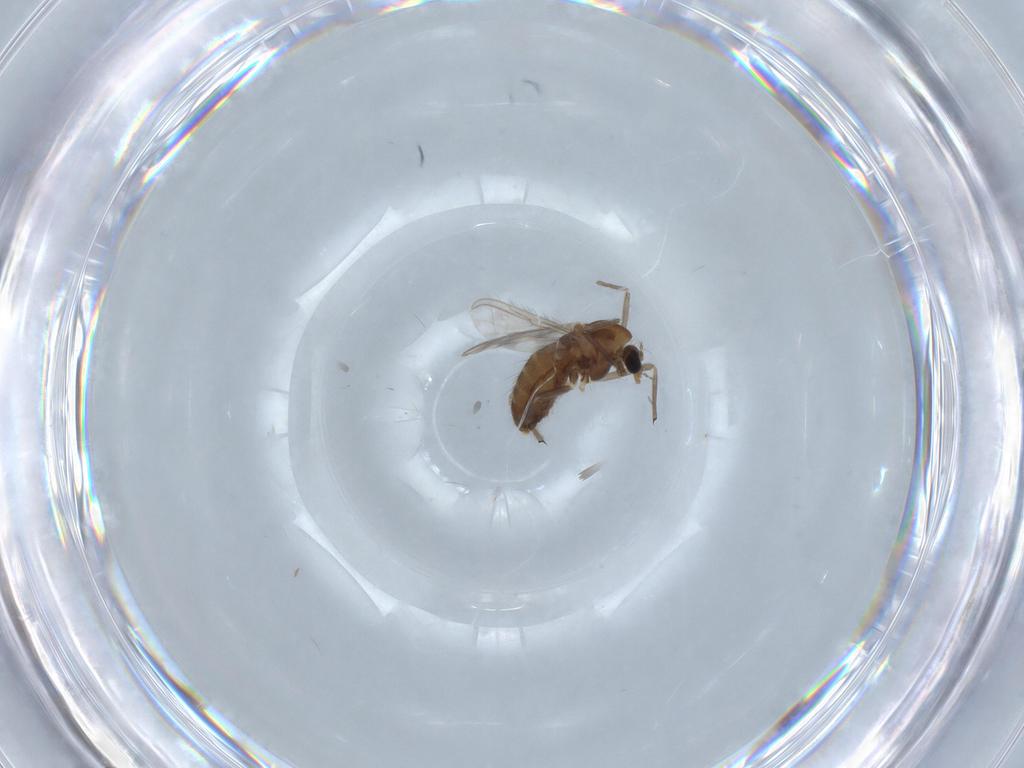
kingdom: Animalia
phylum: Arthropoda
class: Insecta
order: Diptera
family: Chironomidae
